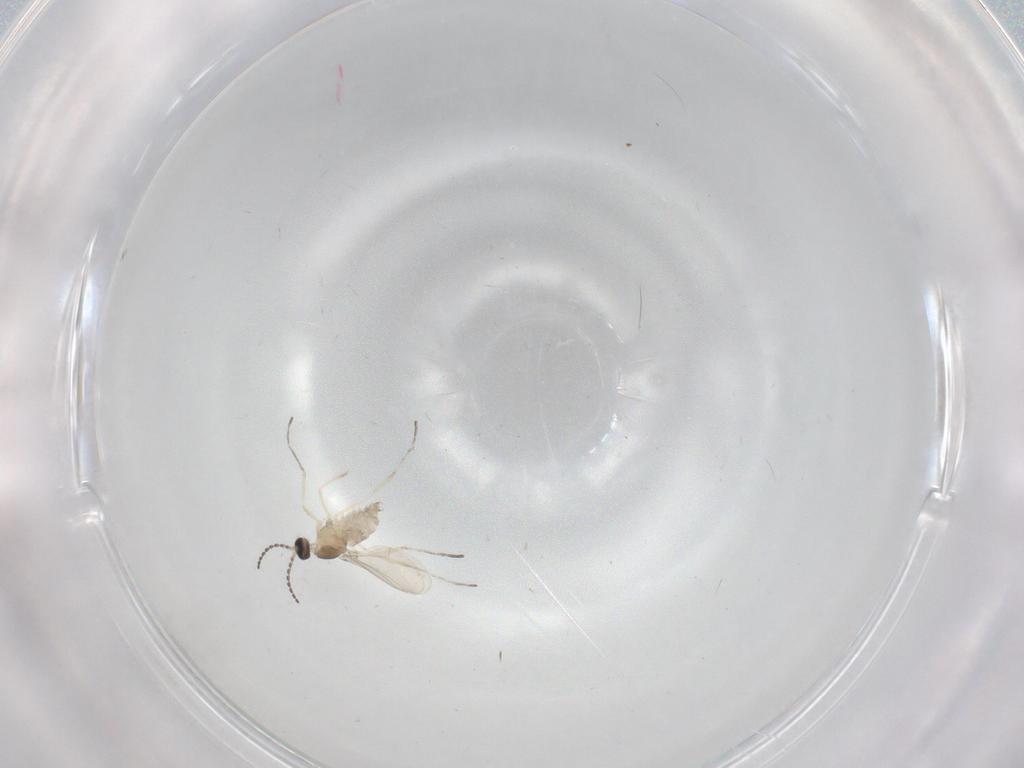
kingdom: Animalia
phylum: Arthropoda
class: Insecta
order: Diptera
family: Cecidomyiidae
